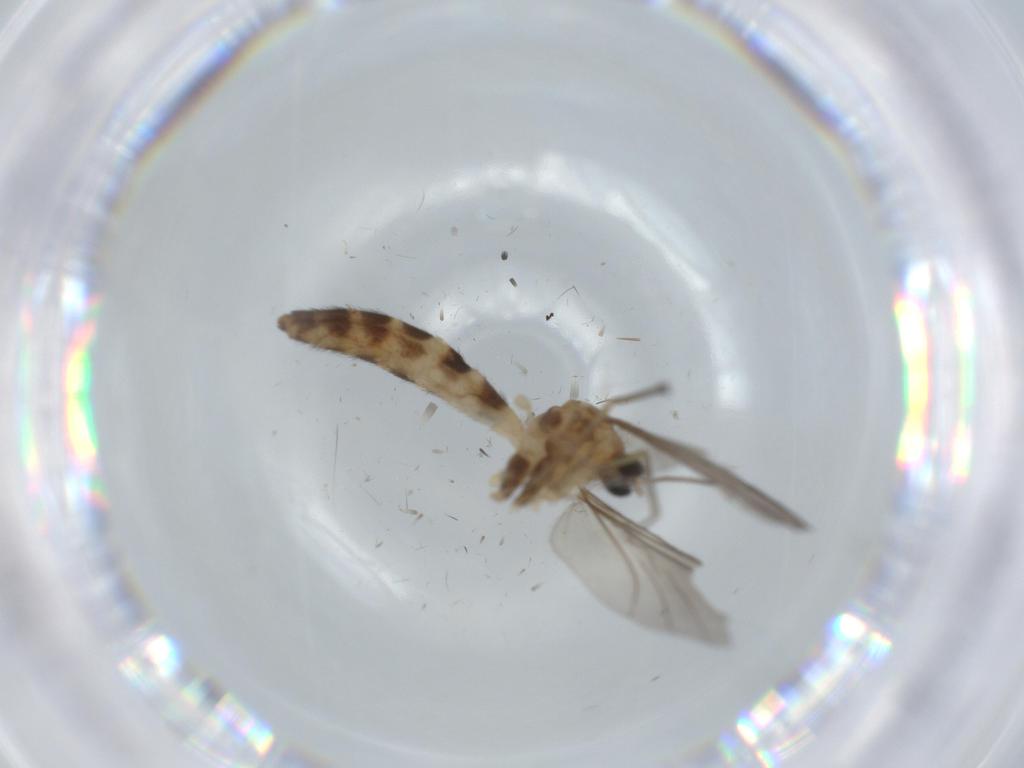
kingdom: Animalia
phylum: Arthropoda
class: Insecta
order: Diptera
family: Keroplatidae
